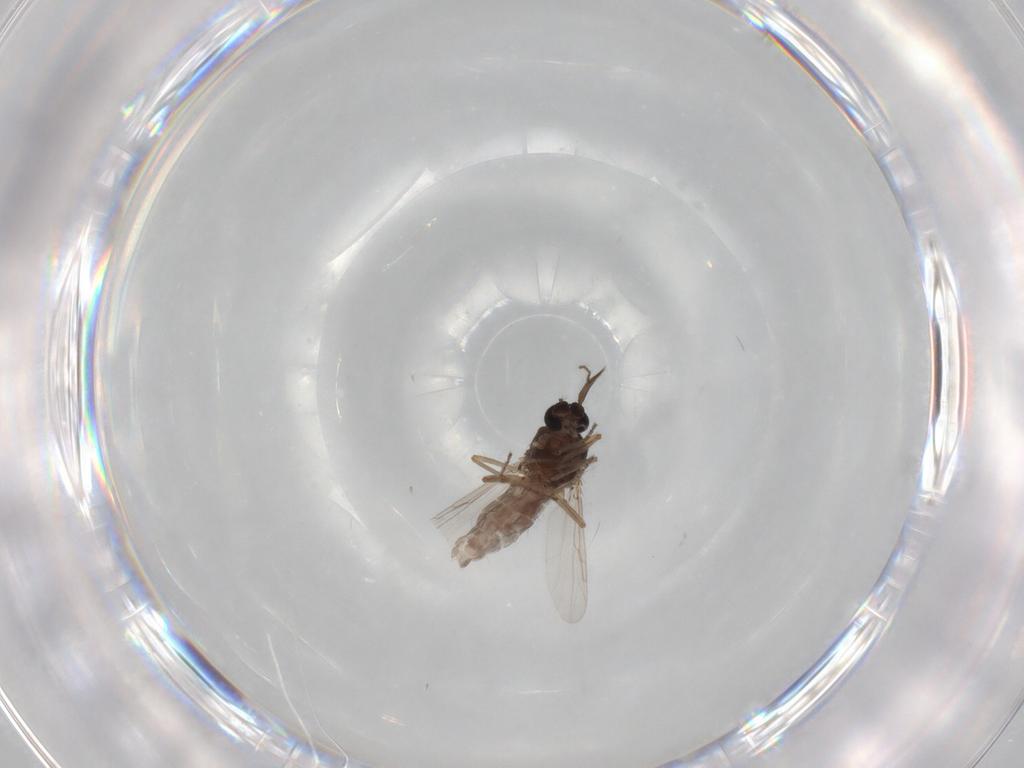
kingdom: Animalia
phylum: Arthropoda
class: Insecta
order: Diptera
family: Ceratopogonidae
